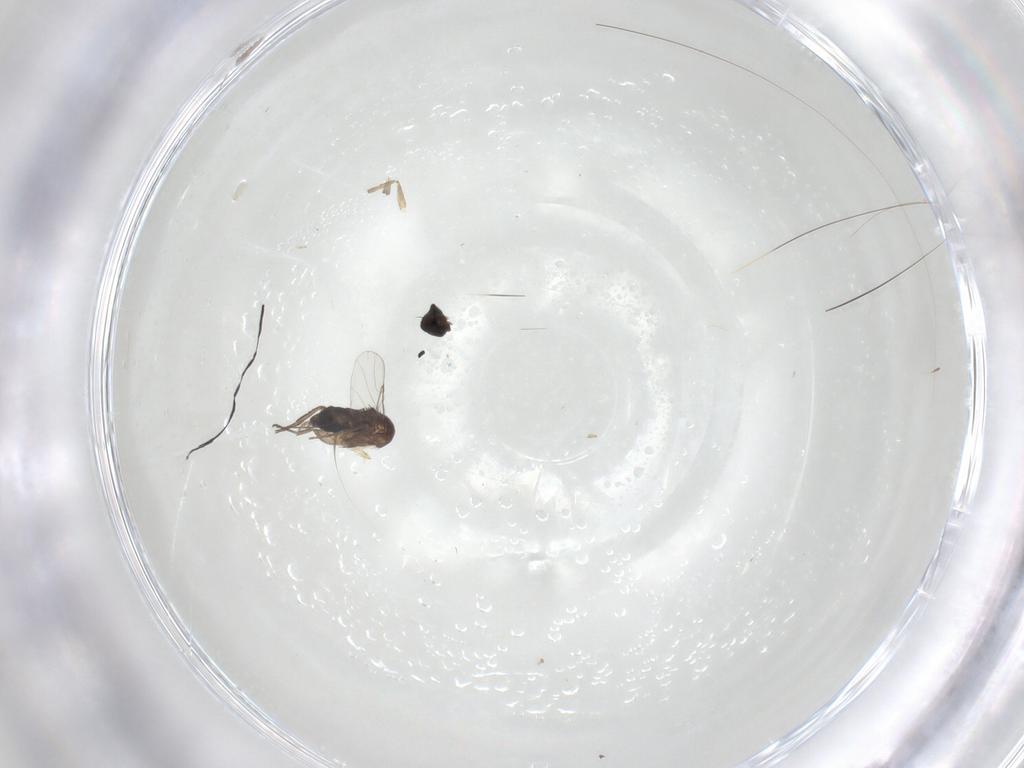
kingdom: Animalia
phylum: Arthropoda
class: Insecta
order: Diptera
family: Phoridae
